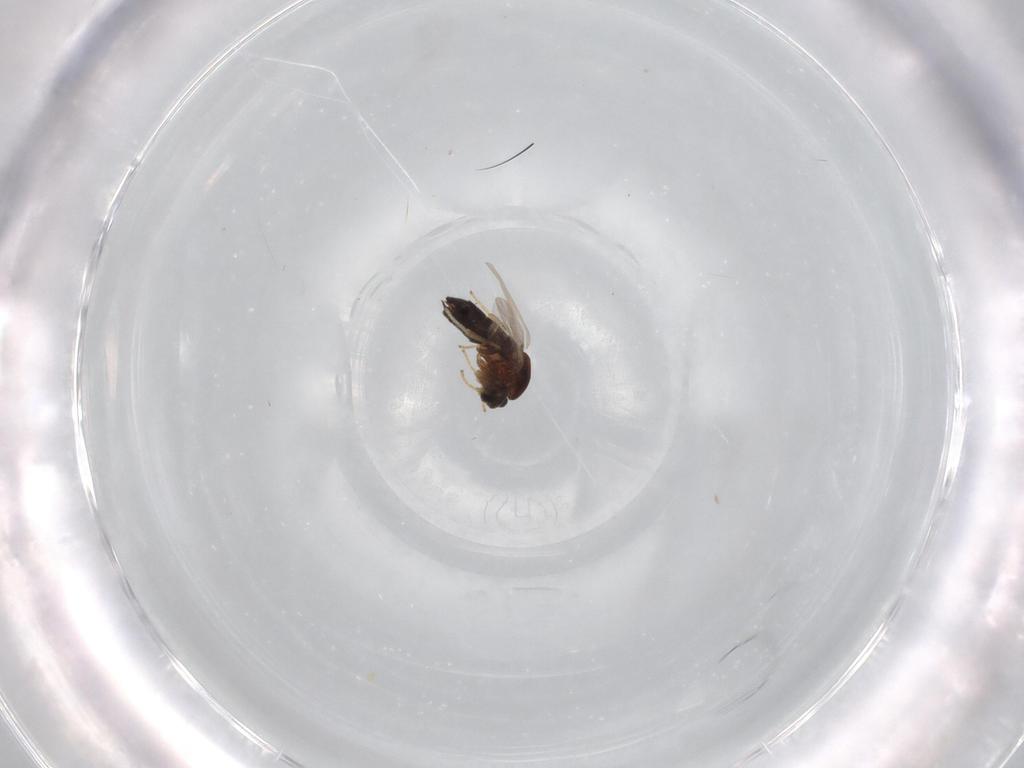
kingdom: Animalia
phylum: Arthropoda
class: Insecta
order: Diptera
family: Scatopsidae
